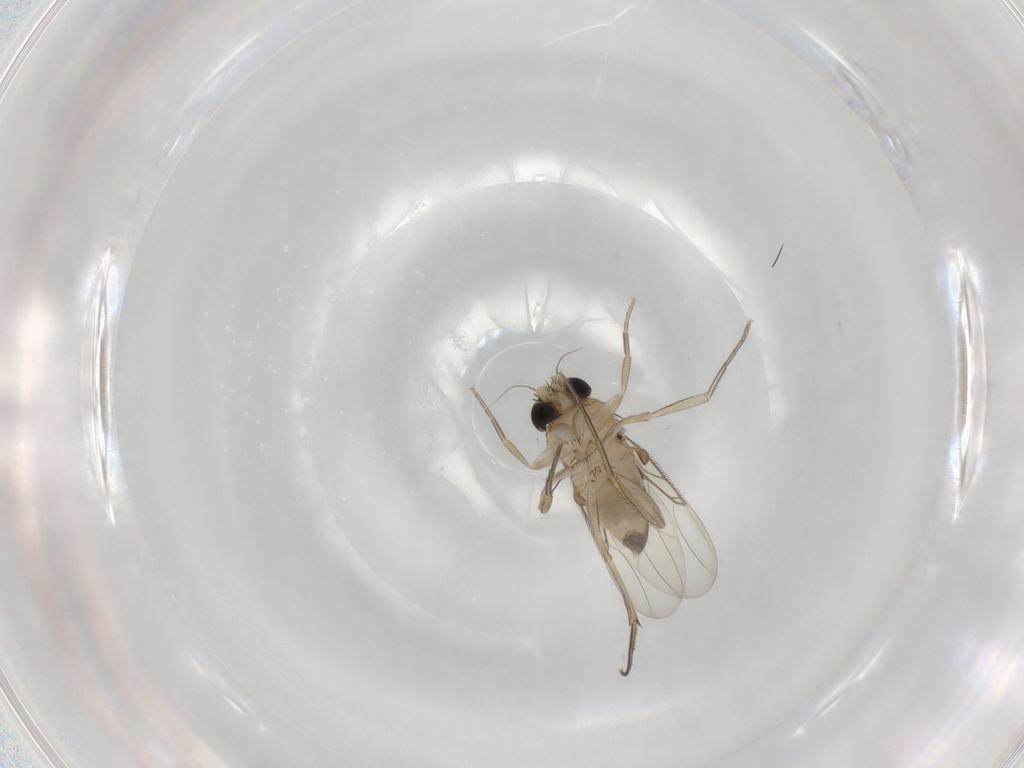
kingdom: Animalia
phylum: Arthropoda
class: Insecta
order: Diptera
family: Phoridae
